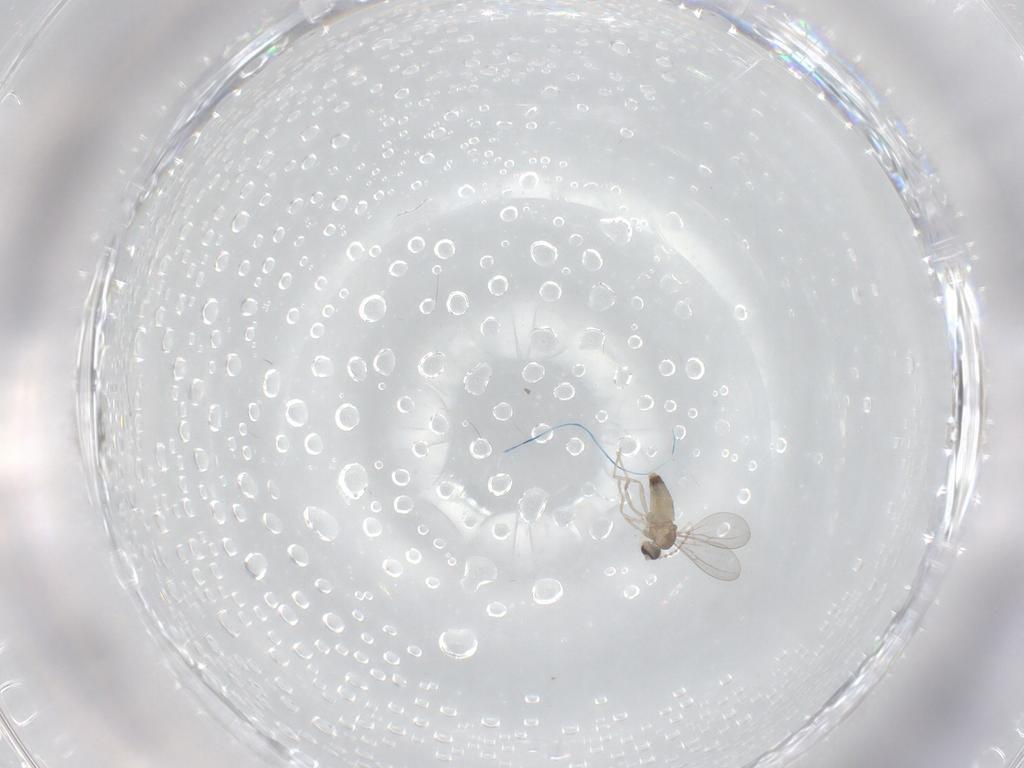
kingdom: Animalia
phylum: Arthropoda
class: Insecta
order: Diptera
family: Cecidomyiidae
